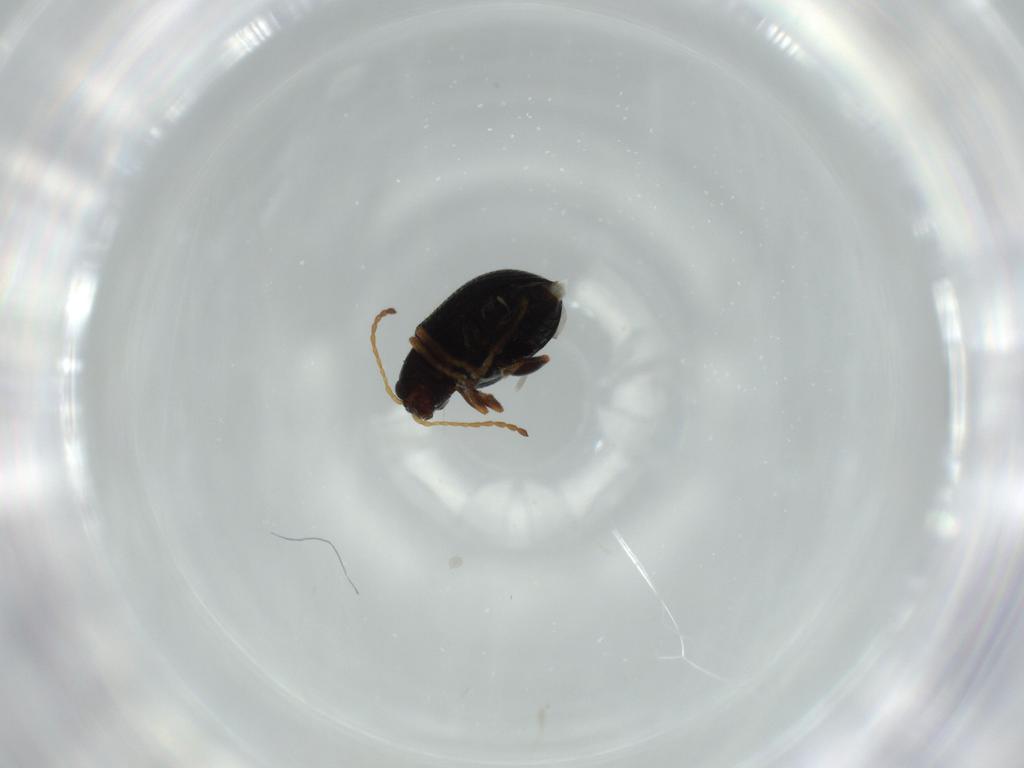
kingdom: Animalia
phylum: Arthropoda
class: Insecta
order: Coleoptera
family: Chrysomelidae
